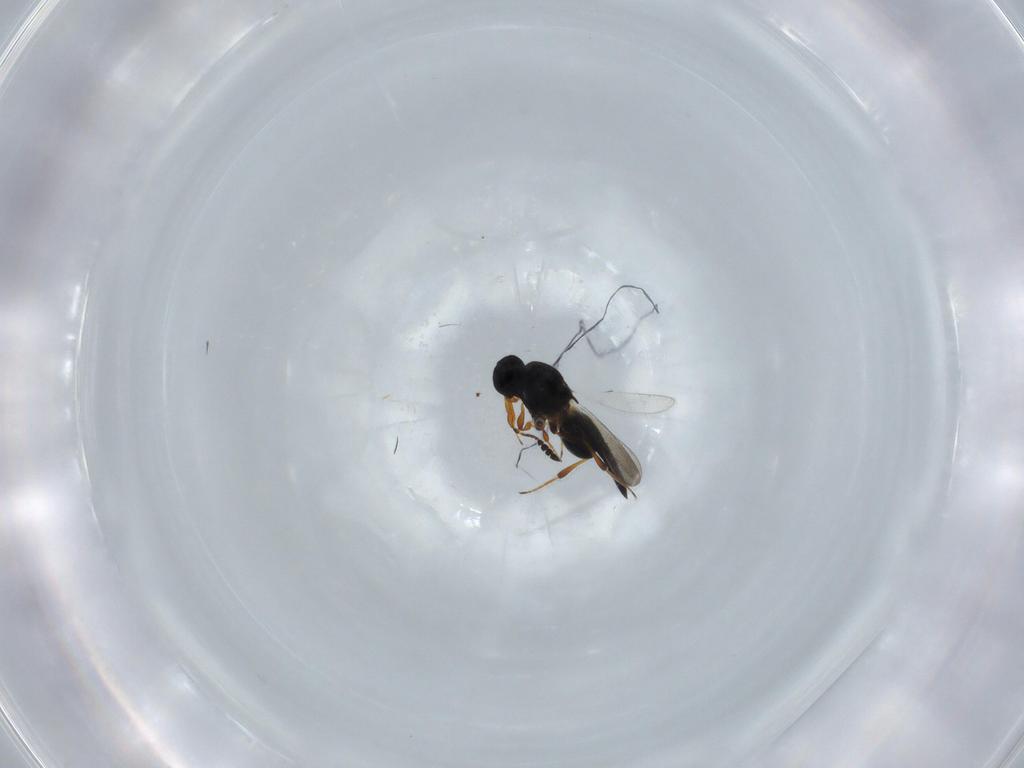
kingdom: Animalia
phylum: Arthropoda
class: Insecta
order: Hymenoptera
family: Platygastridae
